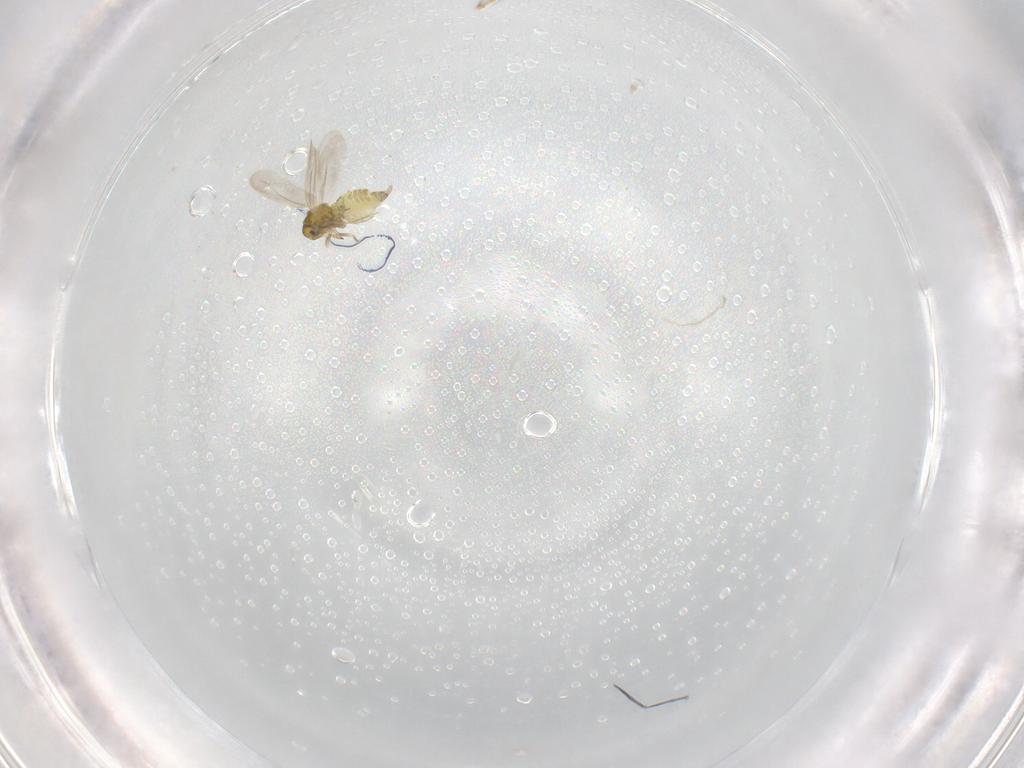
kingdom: Animalia
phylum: Arthropoda
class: Insecta
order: Hemiptera
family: Aleyrodidae
